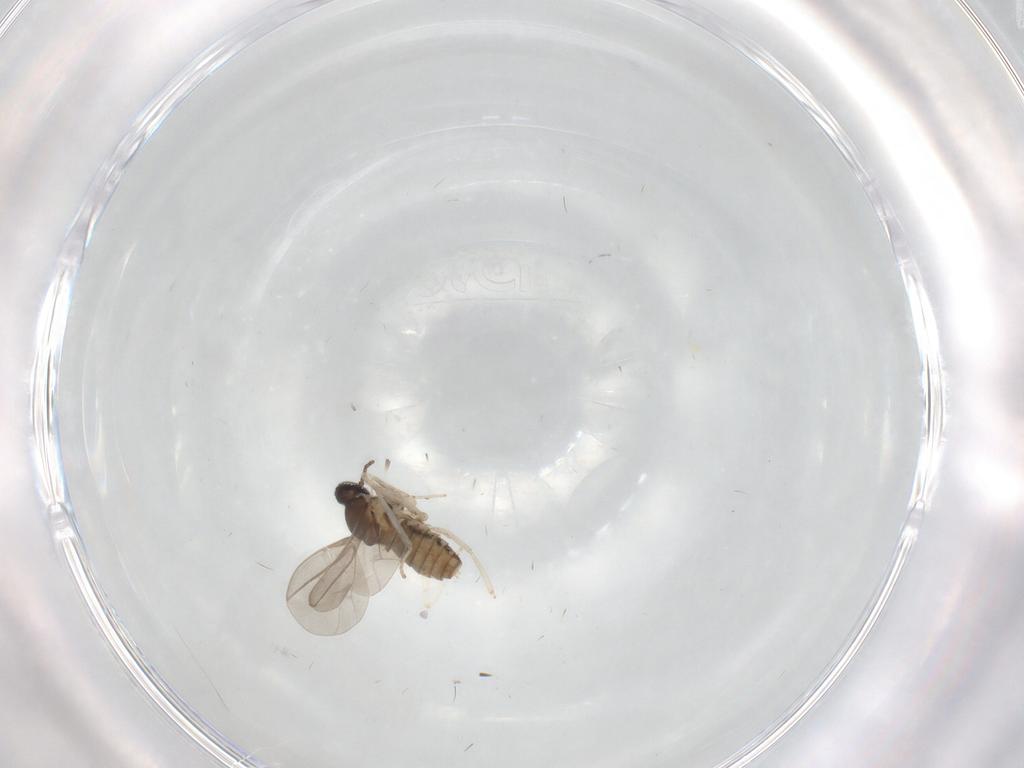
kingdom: Animalia
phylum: Arthropoda
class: Insecta
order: Diptera
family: Cecidomyiidae
